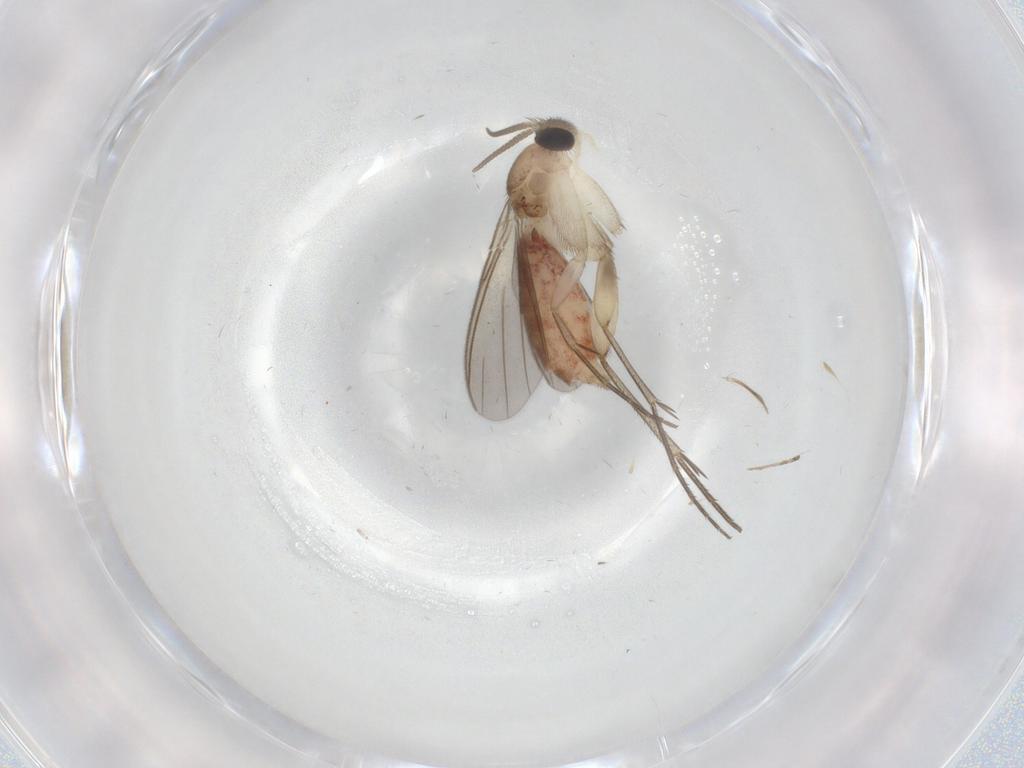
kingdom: Animalia
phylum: Arthropoda
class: Insecta
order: Diptera
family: Mycetophilidae
